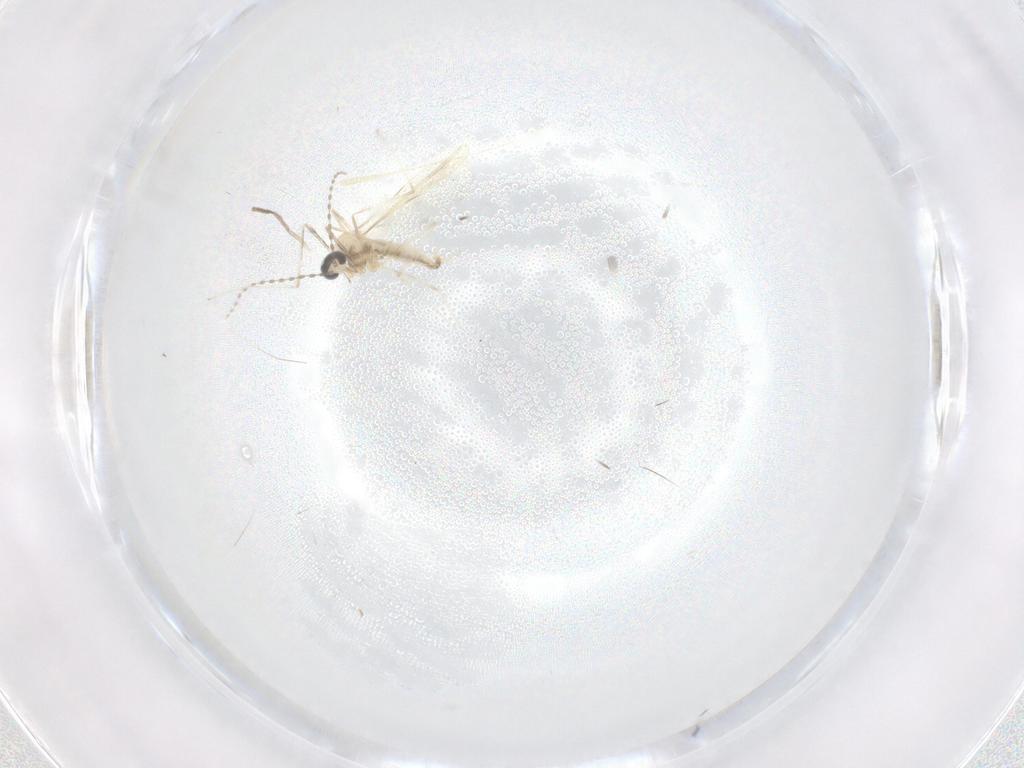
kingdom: Animalia
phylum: Arthropoda
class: Insecta
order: Diptera
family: Cecidomyiidae
